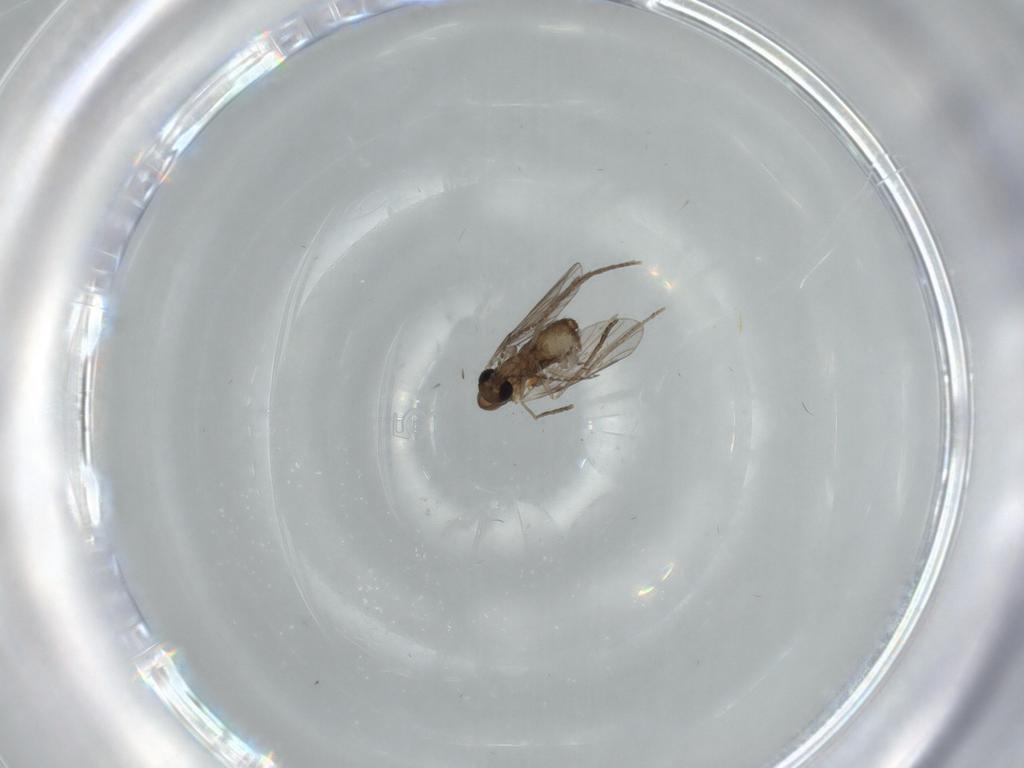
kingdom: Animalia
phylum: Arthropoda
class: Insecta
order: Diptera
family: Psychodidae
